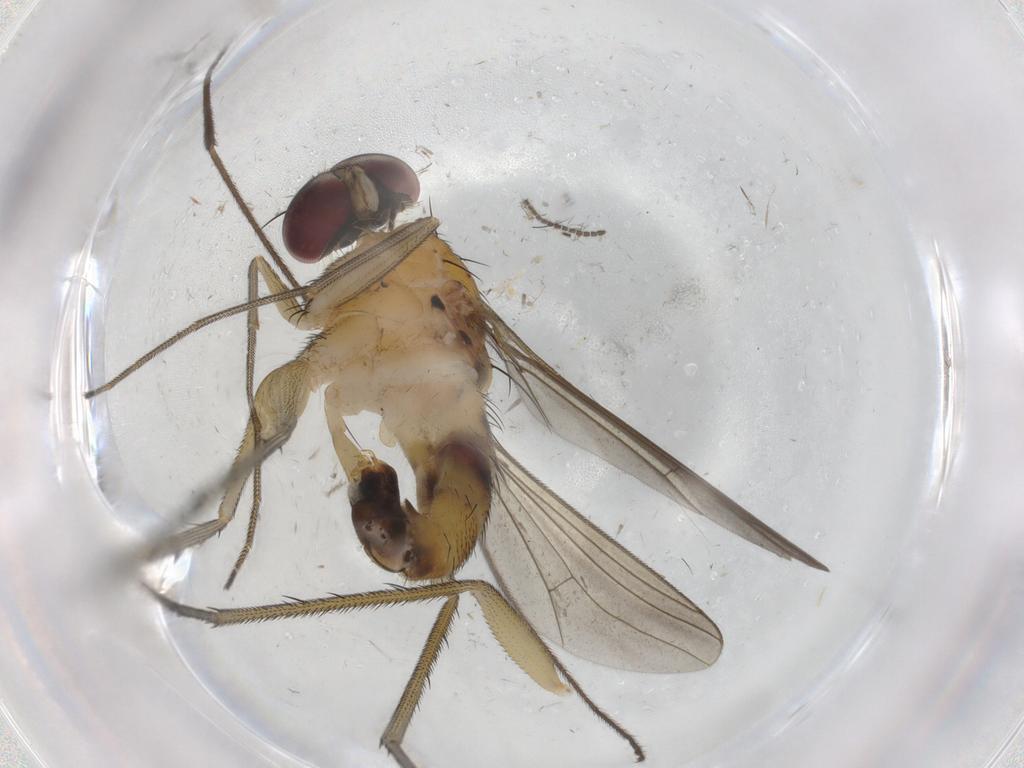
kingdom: Animalia
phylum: Arthropoda
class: Insecta
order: Diptera
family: Dolichopodidae
